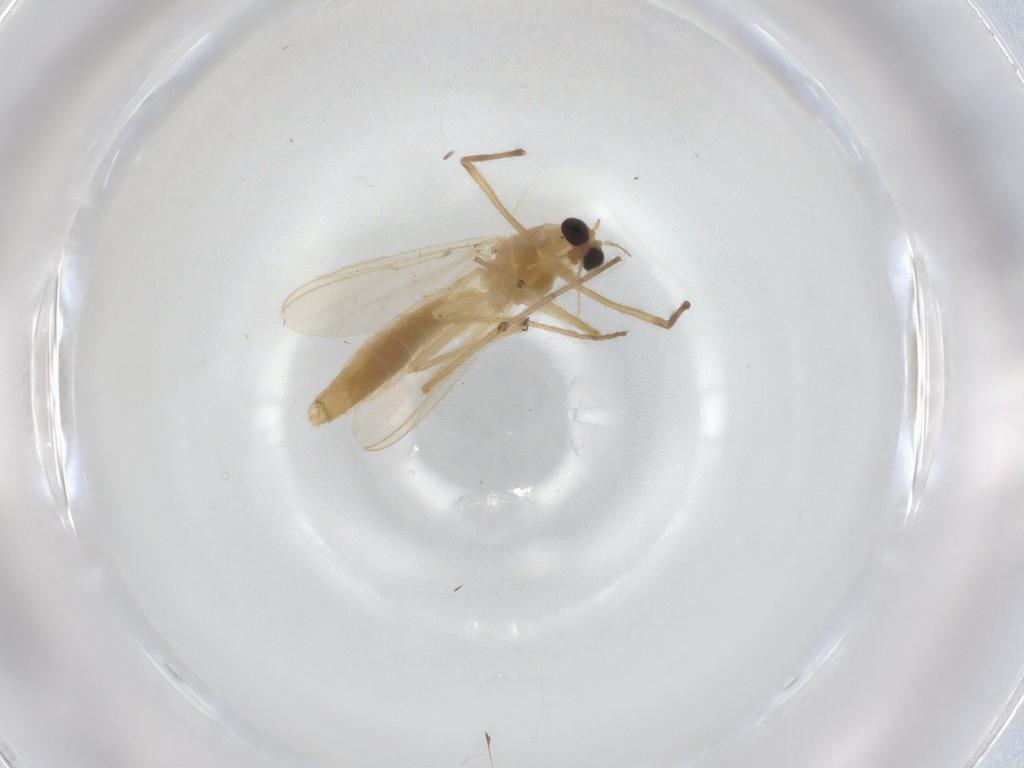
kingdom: Animalia
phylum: Arthropoda
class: Insecta
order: Diptera
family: Chironomidae
